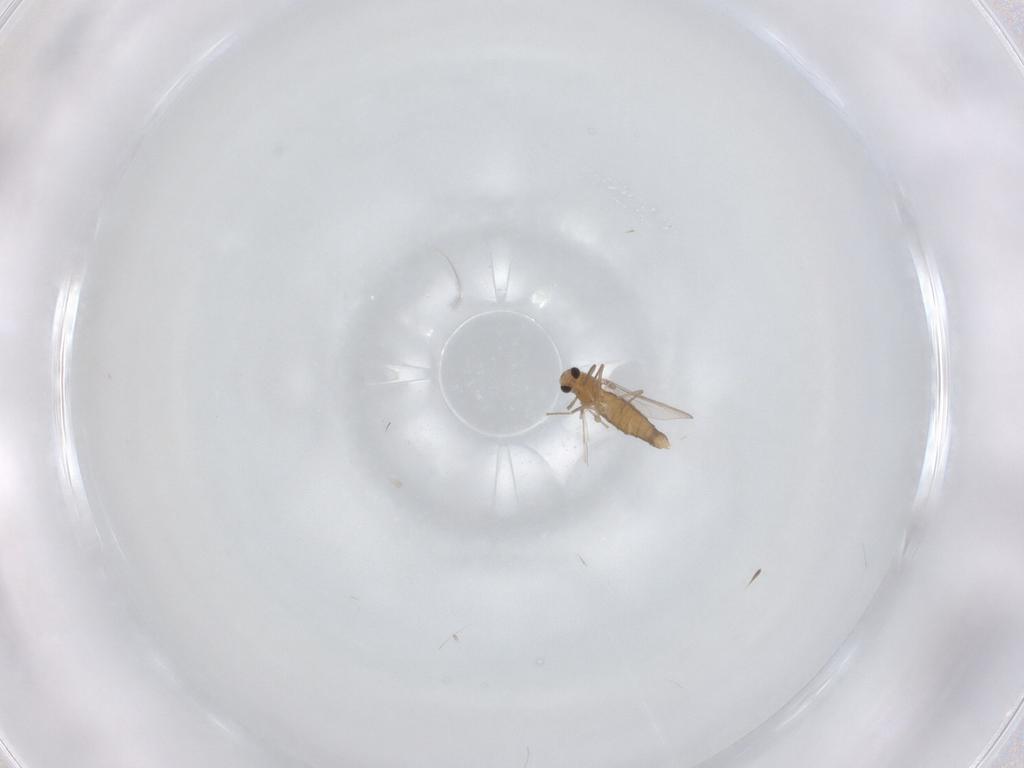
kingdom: Animalia
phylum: Arthropoda
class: Insecta
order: Diptera
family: Chironomidae
